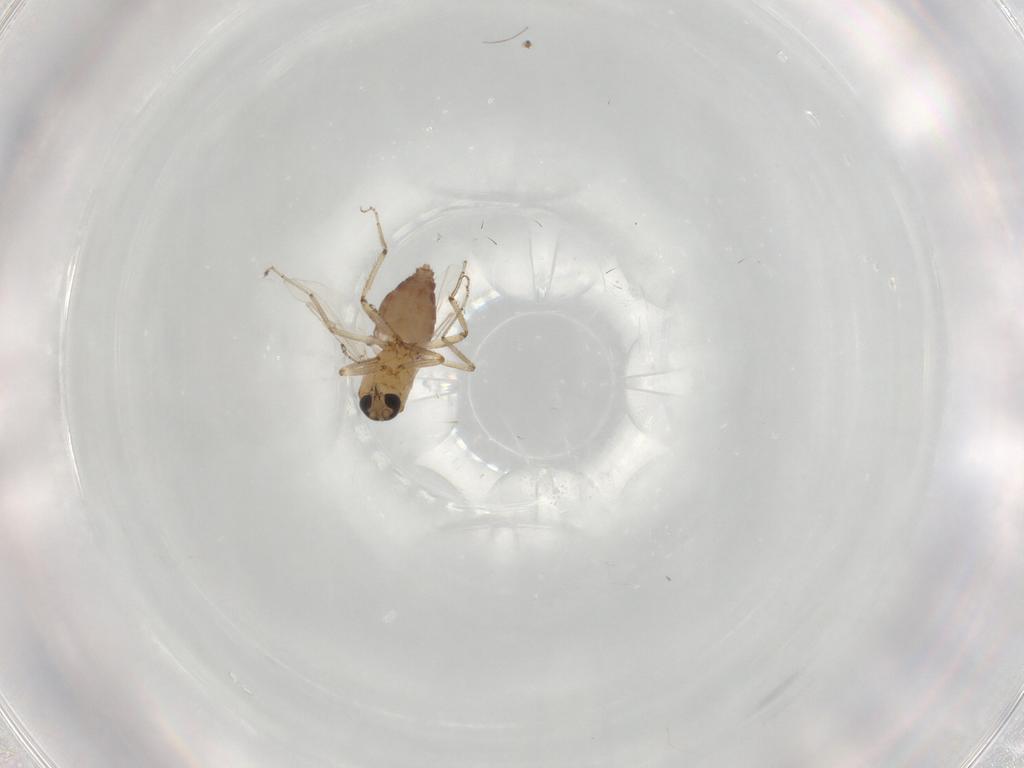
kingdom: Animalia
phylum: Arthropoda
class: Insecta
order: Diptera
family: Ceratopogonidae
